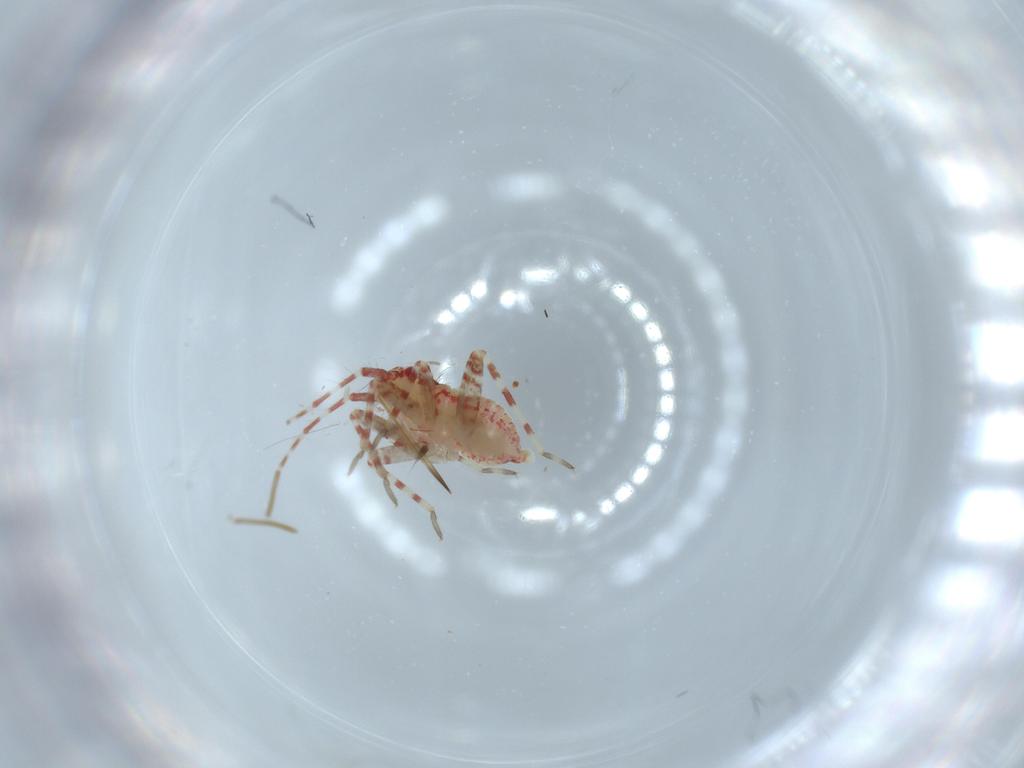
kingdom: Animalia
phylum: Arthropoda
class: Insecta
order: Hemiptera
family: Miridae
